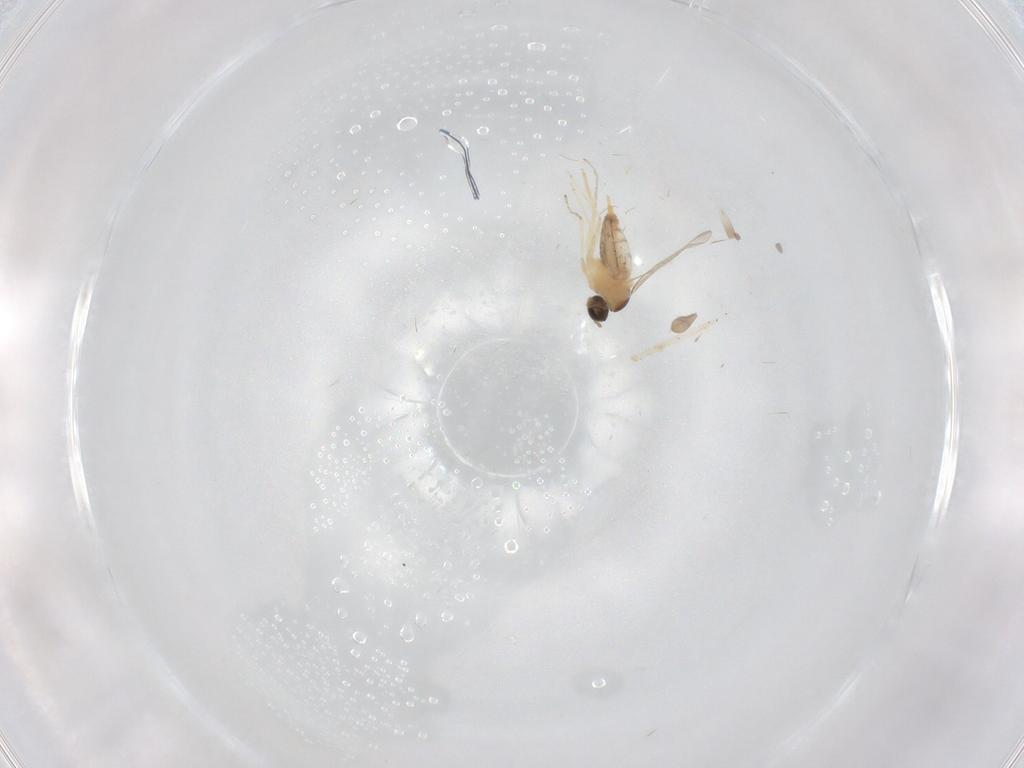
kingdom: Animalia
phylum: Arthropoda
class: Insecta
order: Diptera
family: Cecidomyiidae
